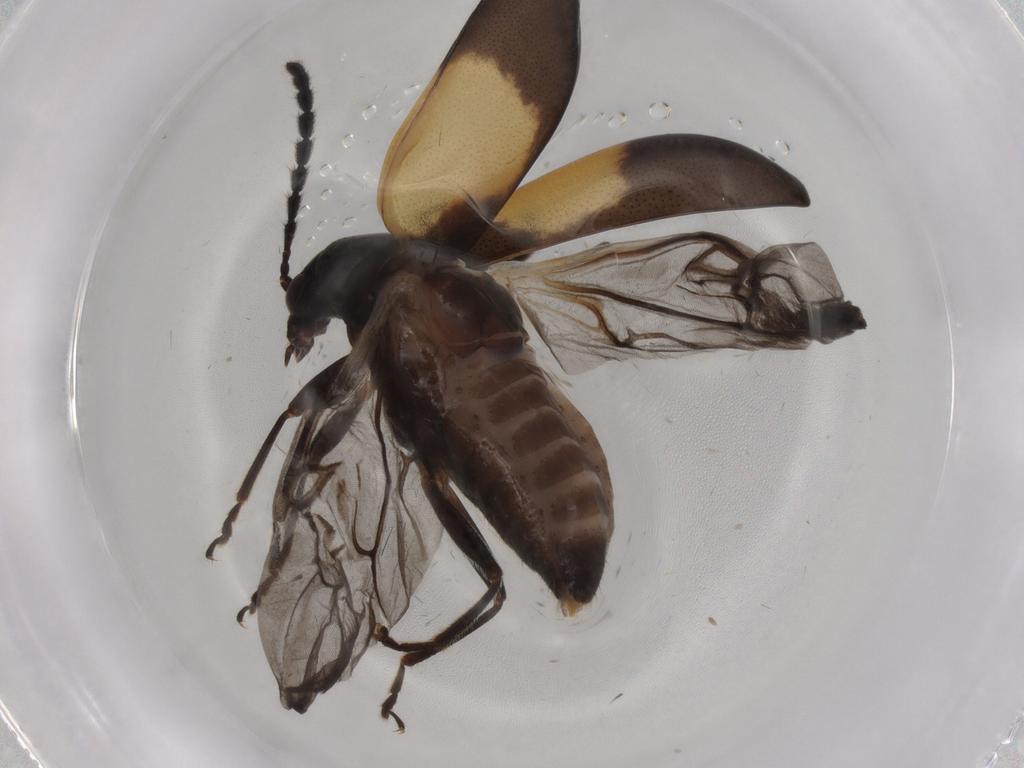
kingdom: Animalia
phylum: Arthropoda
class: Insecta
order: Coleoptera
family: Chrysomelidae
